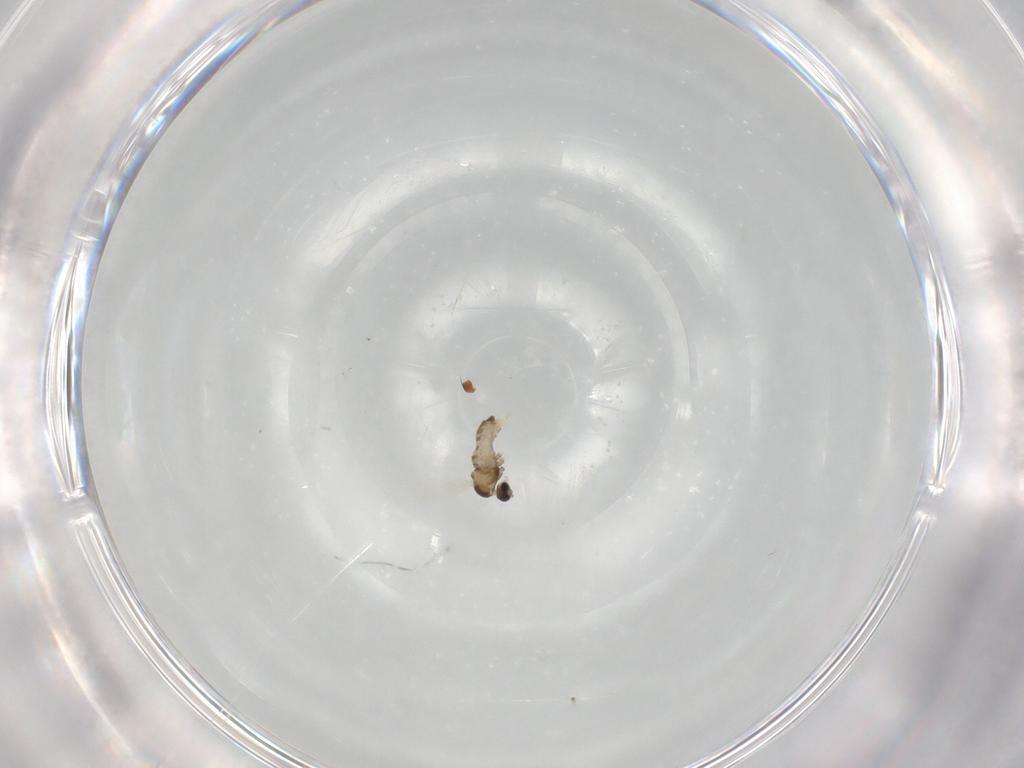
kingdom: Animalia
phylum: Arthropoda
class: Insecta
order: Diptera
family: Cecidomyiidae
